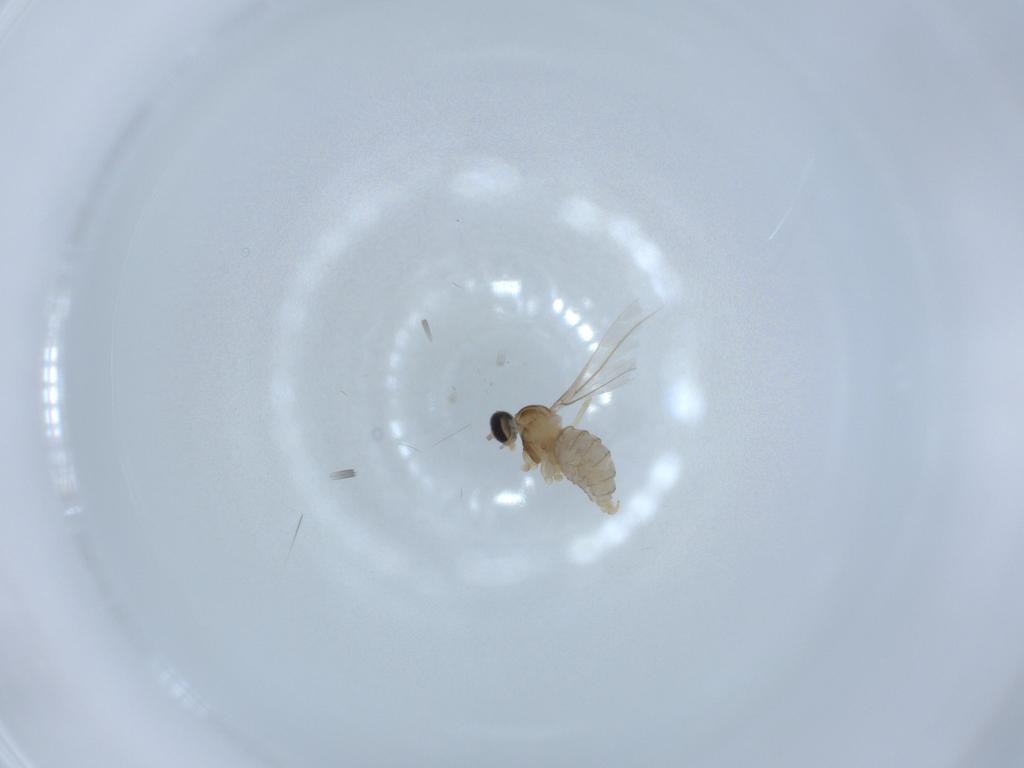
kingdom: Animalia
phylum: Arthropoda
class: Insecta
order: Diptera
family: Cecidomyiidae
